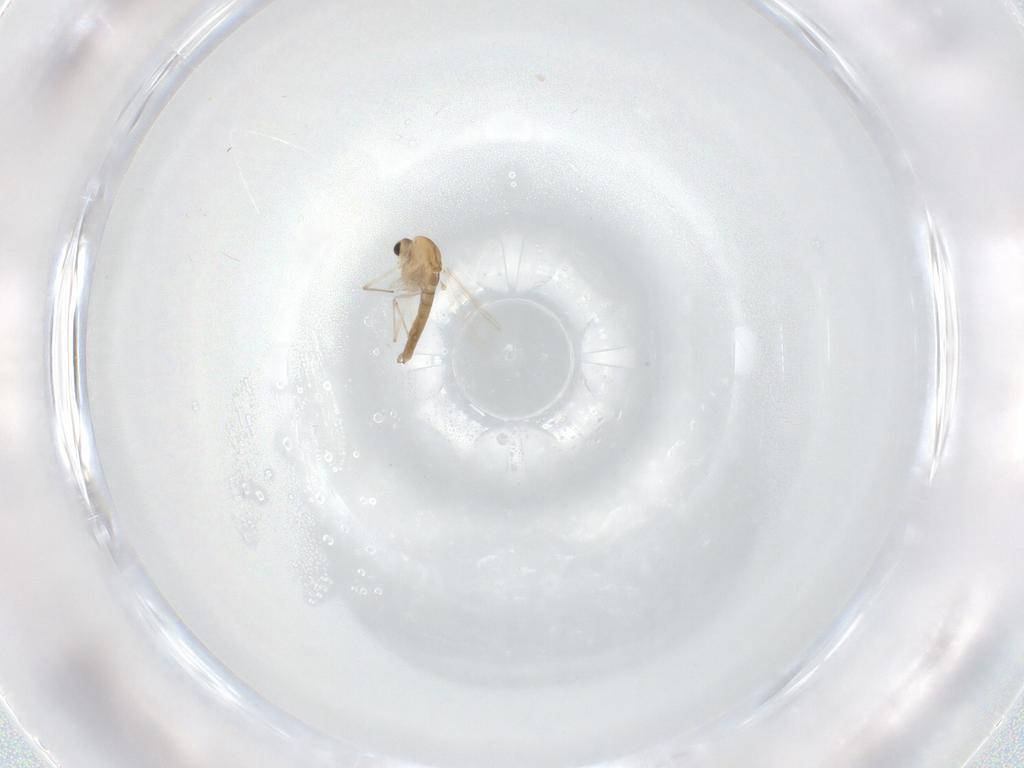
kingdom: Animalia
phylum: Arthropoda
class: Insecta
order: Diptera
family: Chironomidae
